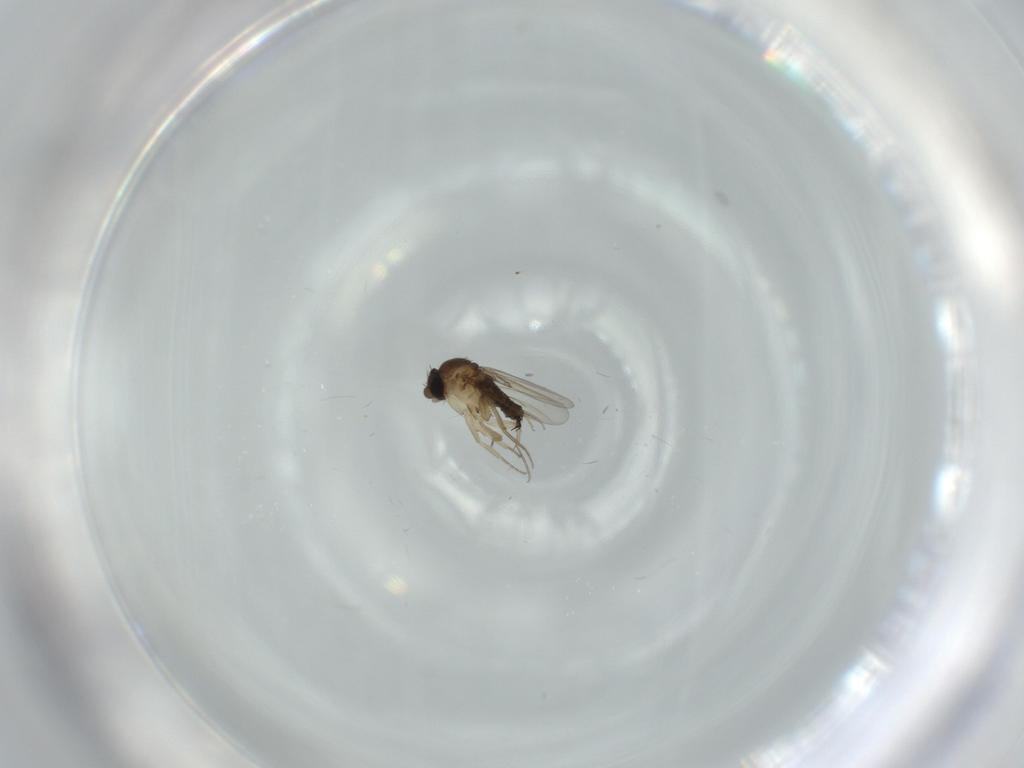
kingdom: Animalia
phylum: Arthropoda
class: Insecta
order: Diptera
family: Phoridae
